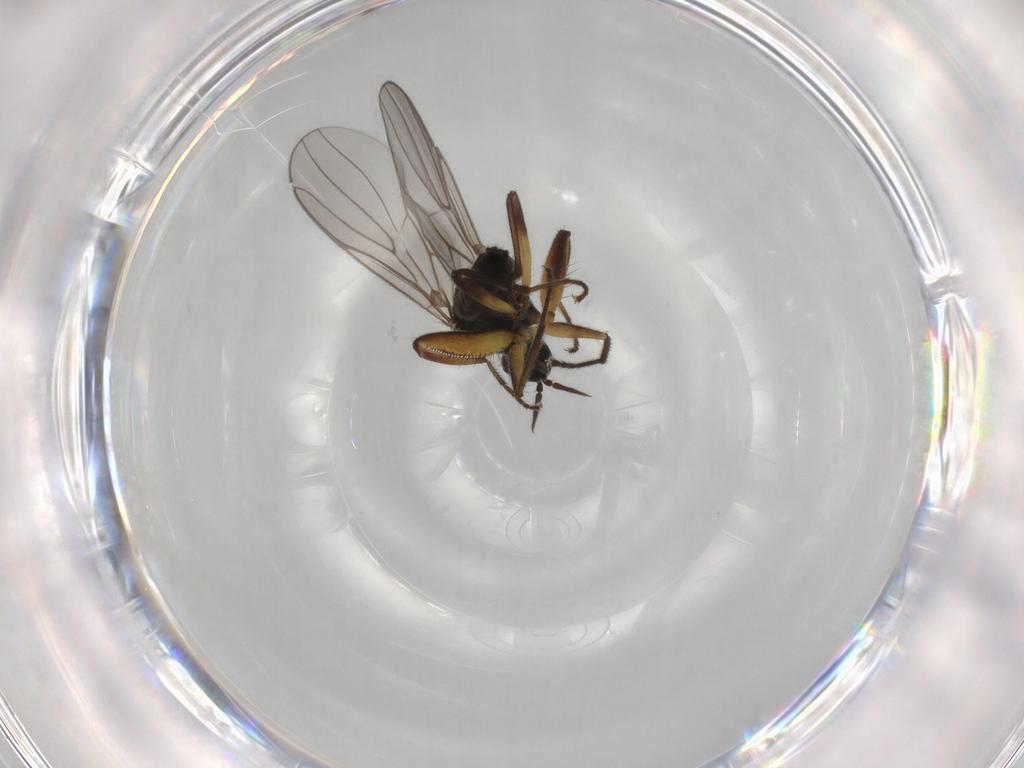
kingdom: Animalia
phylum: Arthropoda
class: Insecta
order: Diptera
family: Hybotidae
